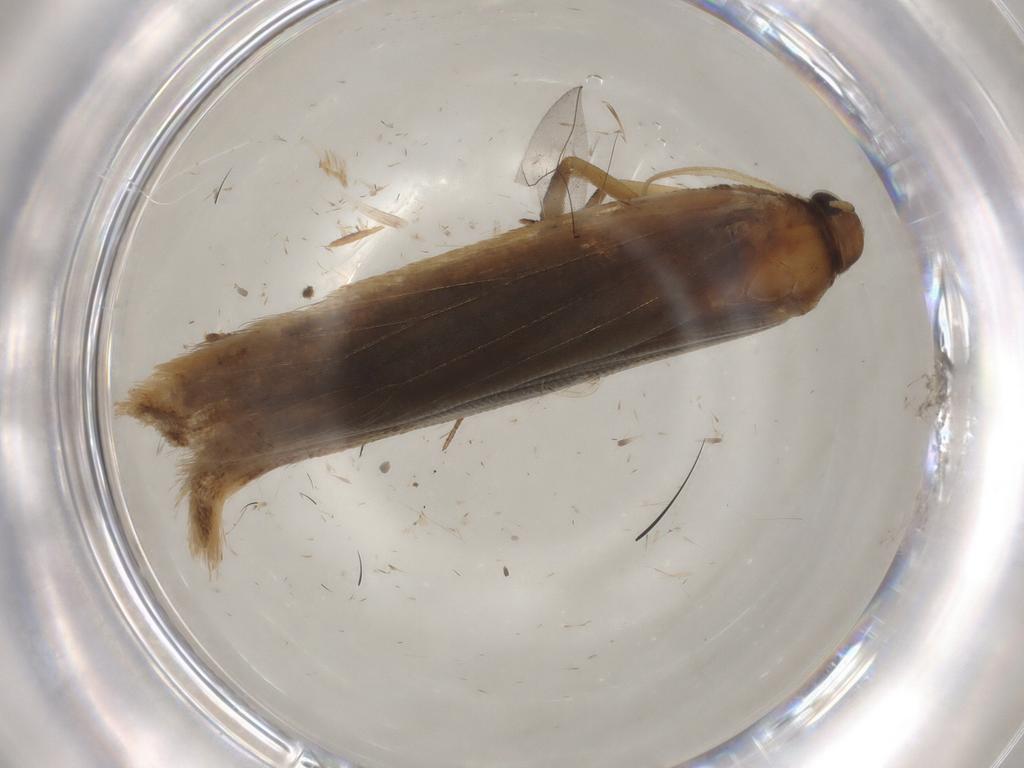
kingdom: Animalia
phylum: Arthropoda
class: Insecta
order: Lepidoptera
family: Gelechiidae
